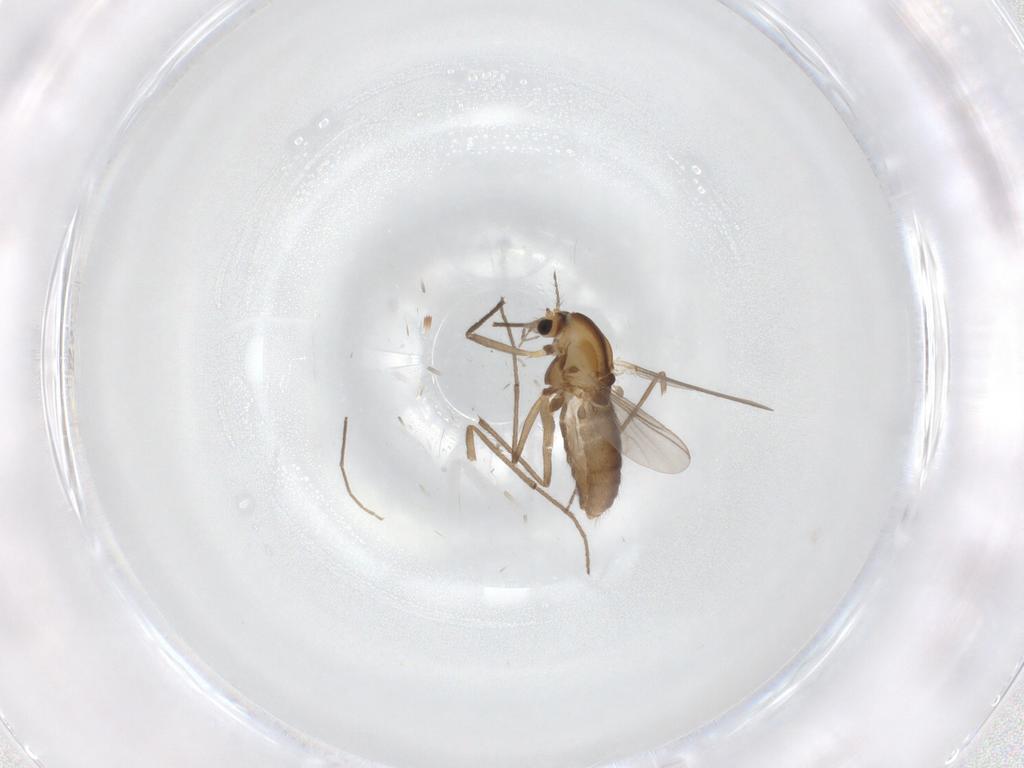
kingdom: Animalia
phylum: Arthropoda
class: Insecta
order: Diptera
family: Chironomidae
